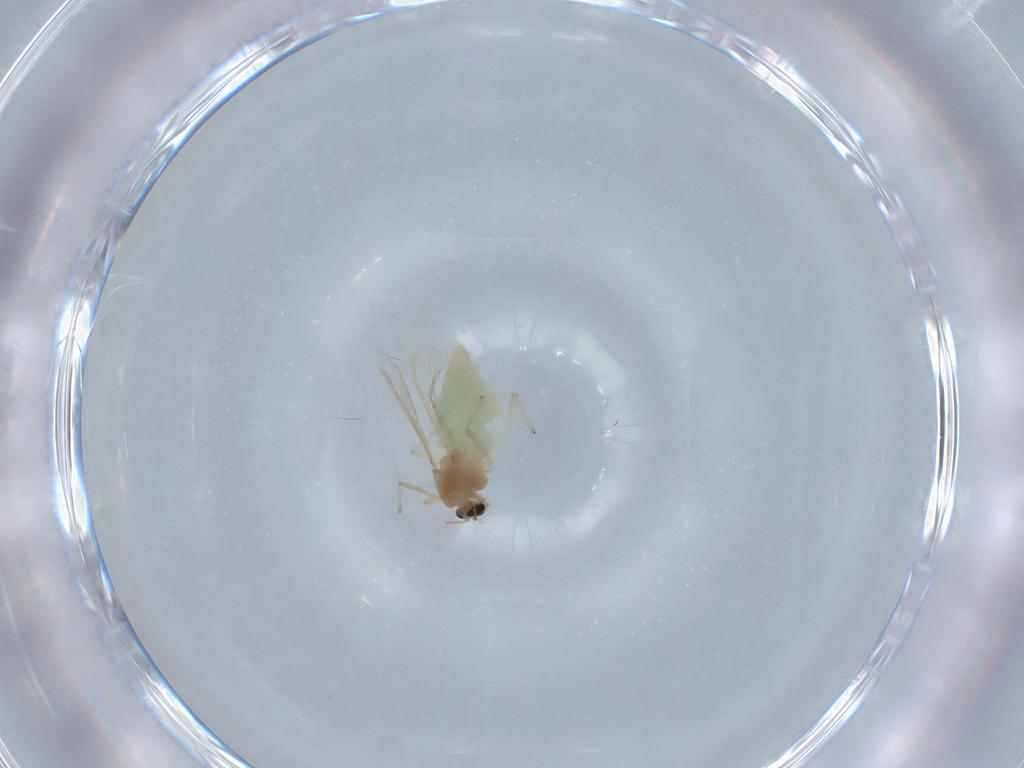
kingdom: Animalia
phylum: Arthropoda
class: Insecta
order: Diptera
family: Chironomidae
